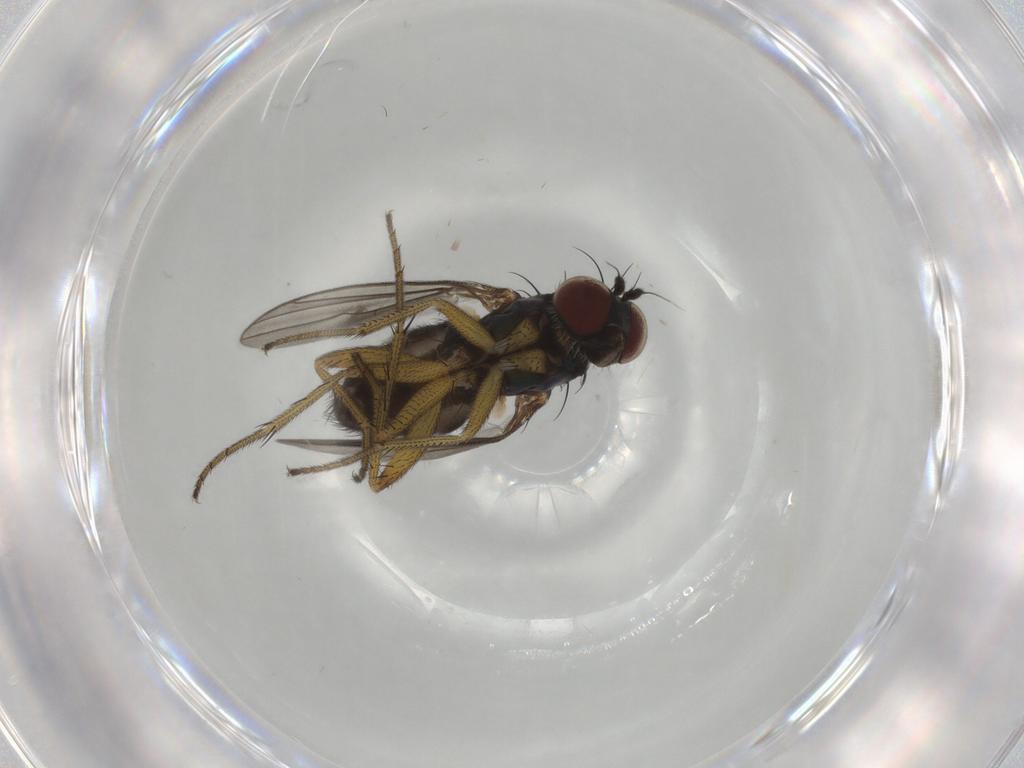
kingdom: Animalia
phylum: Arthropoda
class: Insecta
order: Diptera
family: Dolichopodidae
